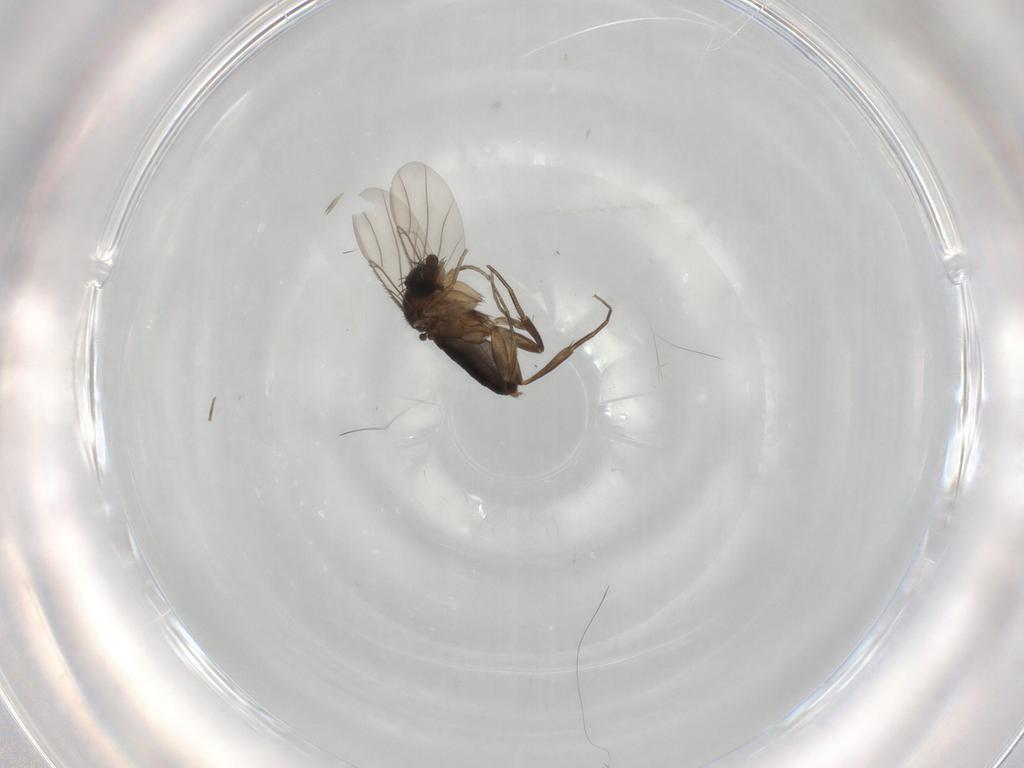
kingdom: Animalia
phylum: Arthropoda
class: Insecta
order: Diptera
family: Phoridae
